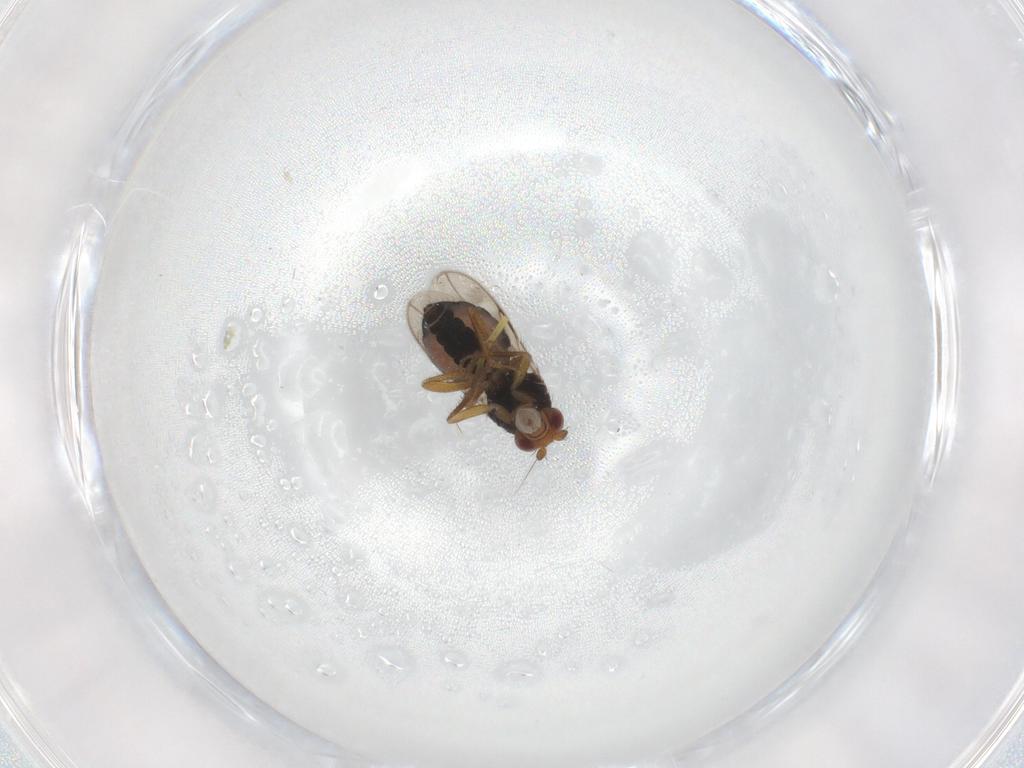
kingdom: Animalia
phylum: Arthropoda
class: Insecta
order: Diptera
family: Sphaeroceridae
